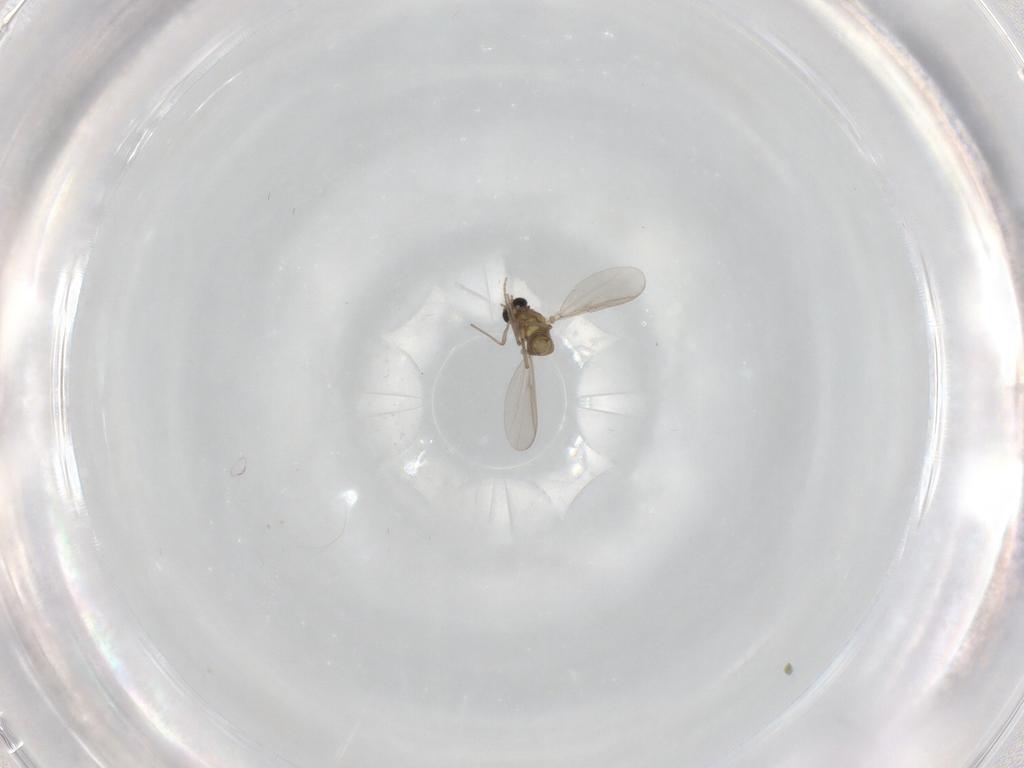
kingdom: Animalia
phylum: Arthropoda
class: Insecta
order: Diptera
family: Chironomidae
